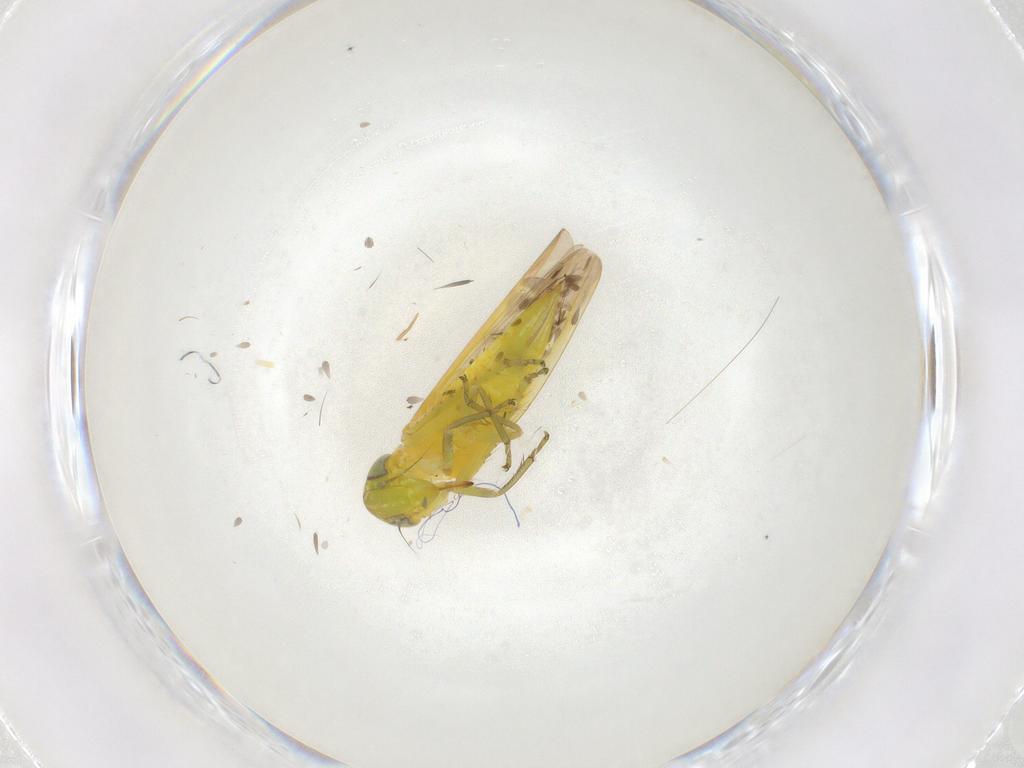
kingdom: Animalia
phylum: Arthropoda
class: Insecta
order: Hemiptera
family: Cicadellidae
